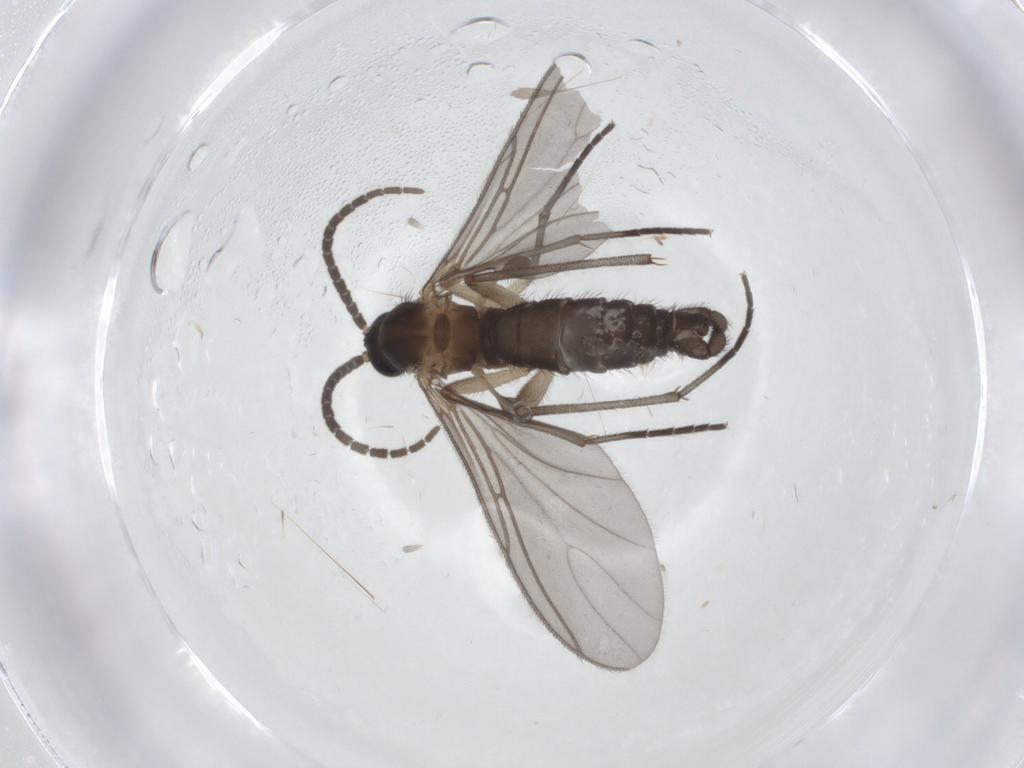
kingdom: Animalia
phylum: Arthropoda
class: Insecta
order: Diptera
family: Sciaridae
